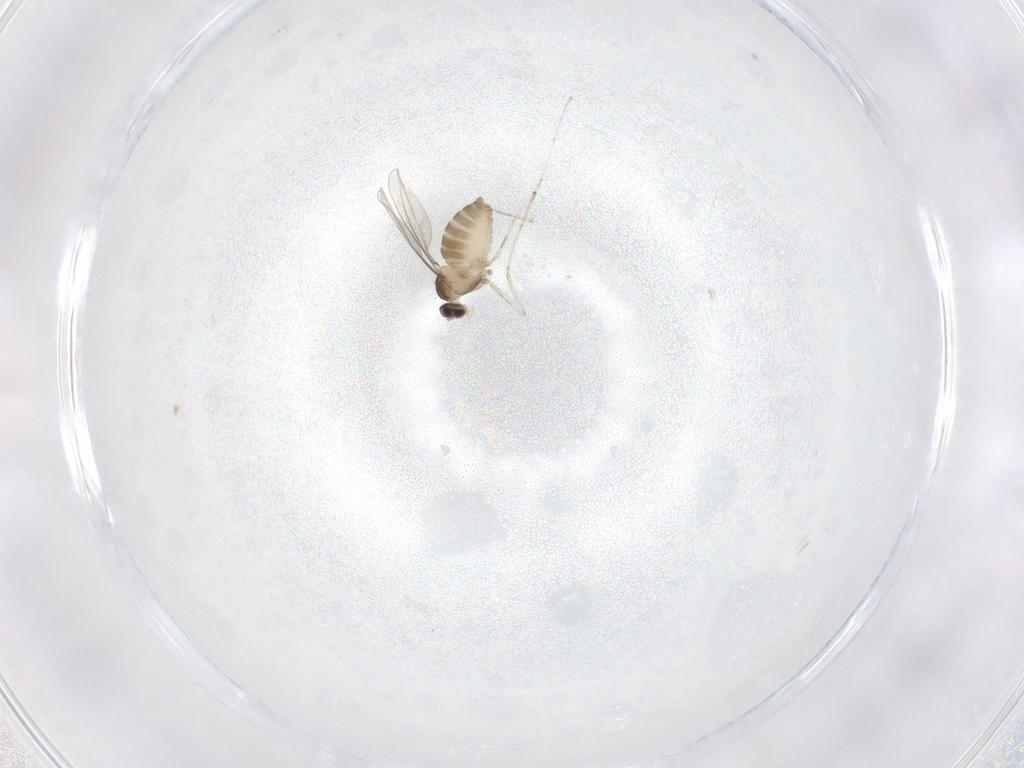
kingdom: Animalia
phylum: Arthropoda
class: Insecta
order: Diptera
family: Cecidomyiidae
